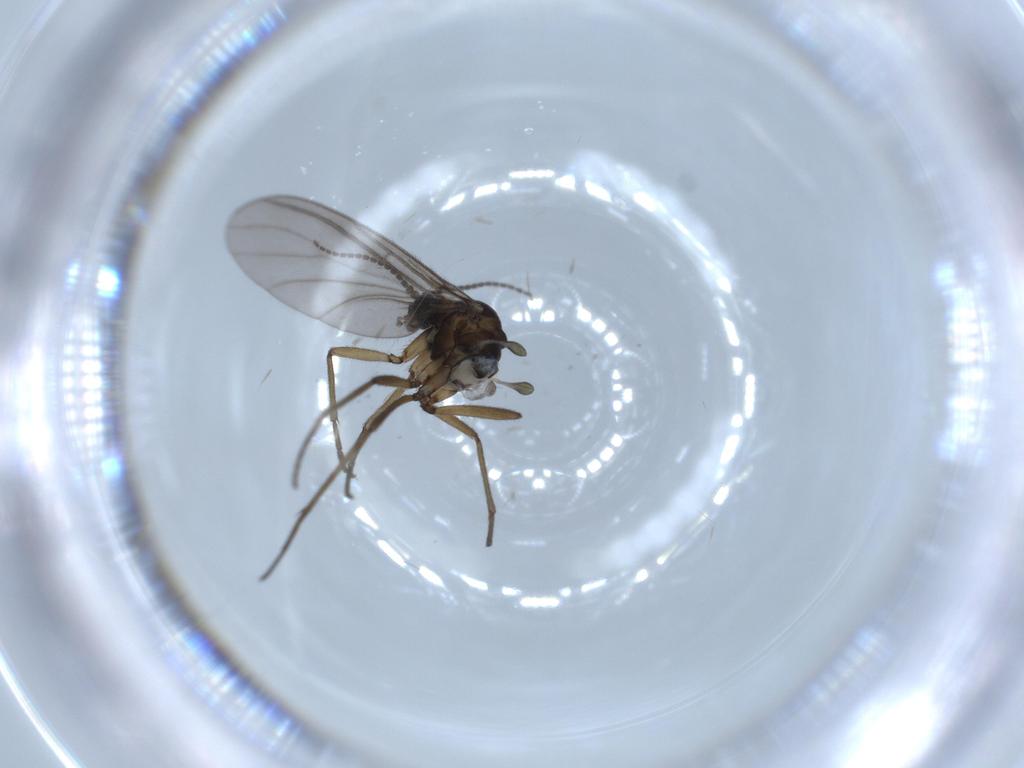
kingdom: Animalia
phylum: Arthropoda
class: Insecta
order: Diptera
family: Sciaridae
